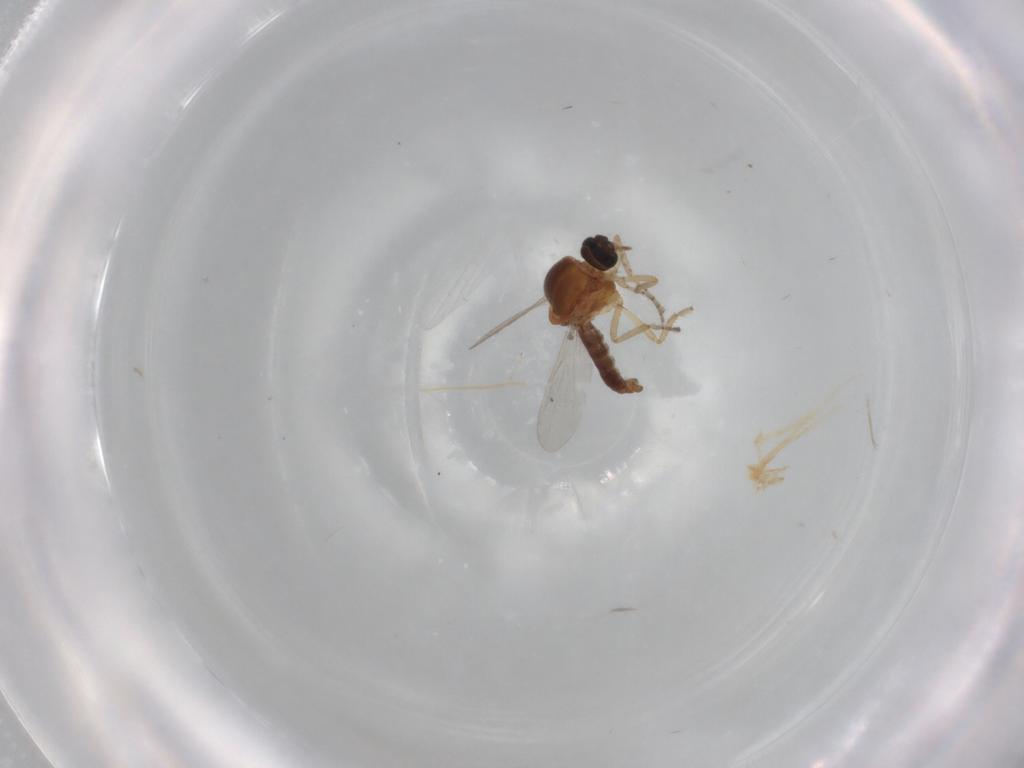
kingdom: Animalia
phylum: Arthropoda
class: Insecta
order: Diptera
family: Ceratopogonidae
